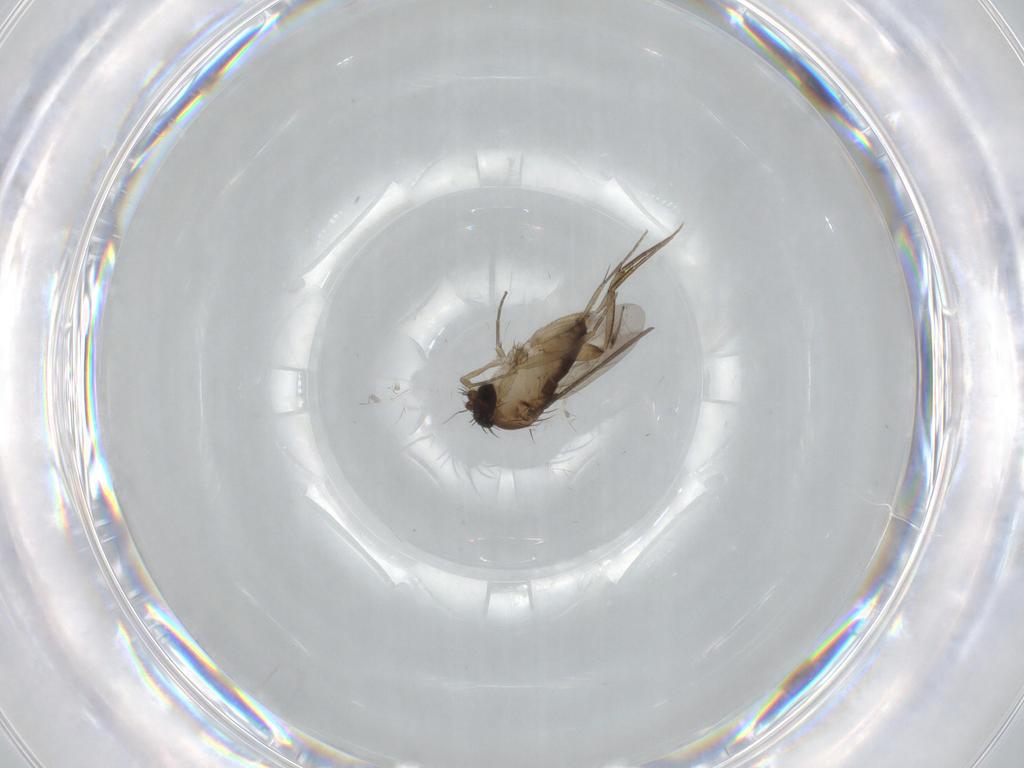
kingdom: Animalia
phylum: Arthropoda
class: Insecta
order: Diptera
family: Phoridae
